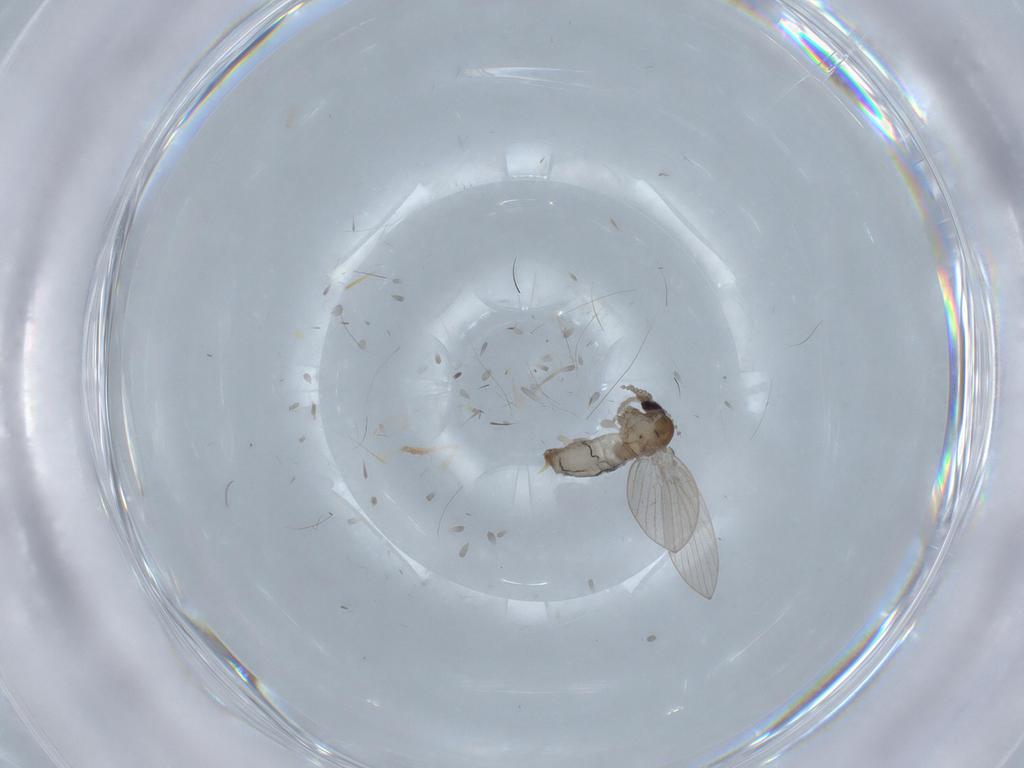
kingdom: Animalia
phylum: Arthropoda
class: Insecta
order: Diptera
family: Psychodidae
